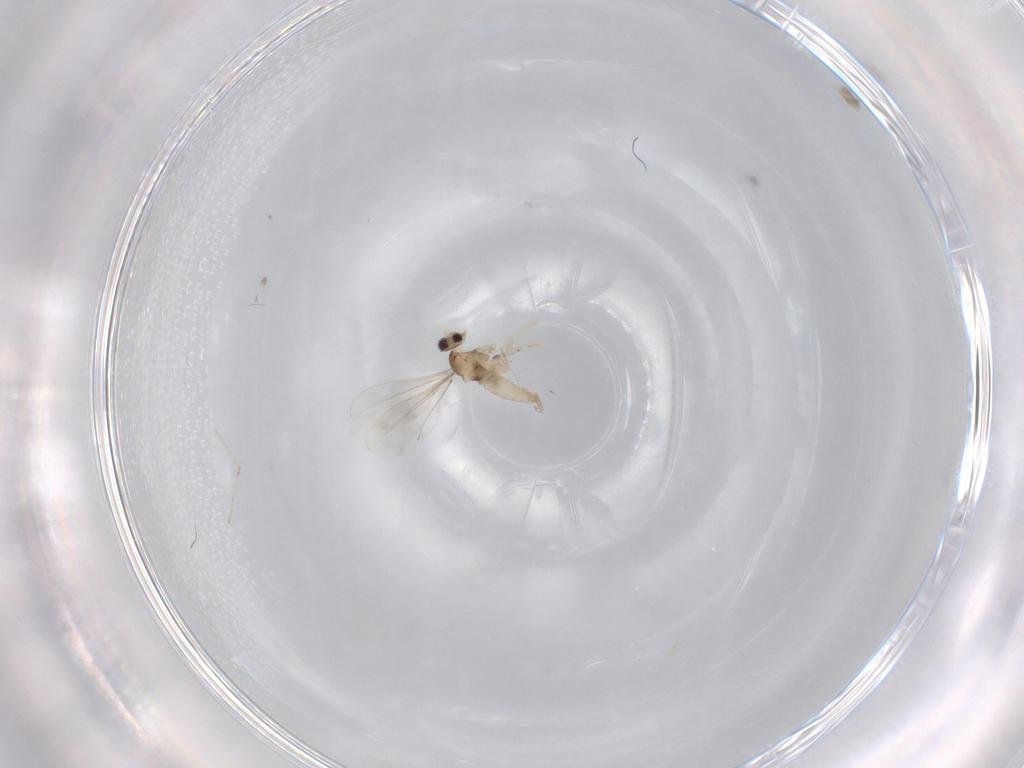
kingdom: Animalia
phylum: Arthropoda
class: Insecta
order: Diptera
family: Cecidomyiidae
